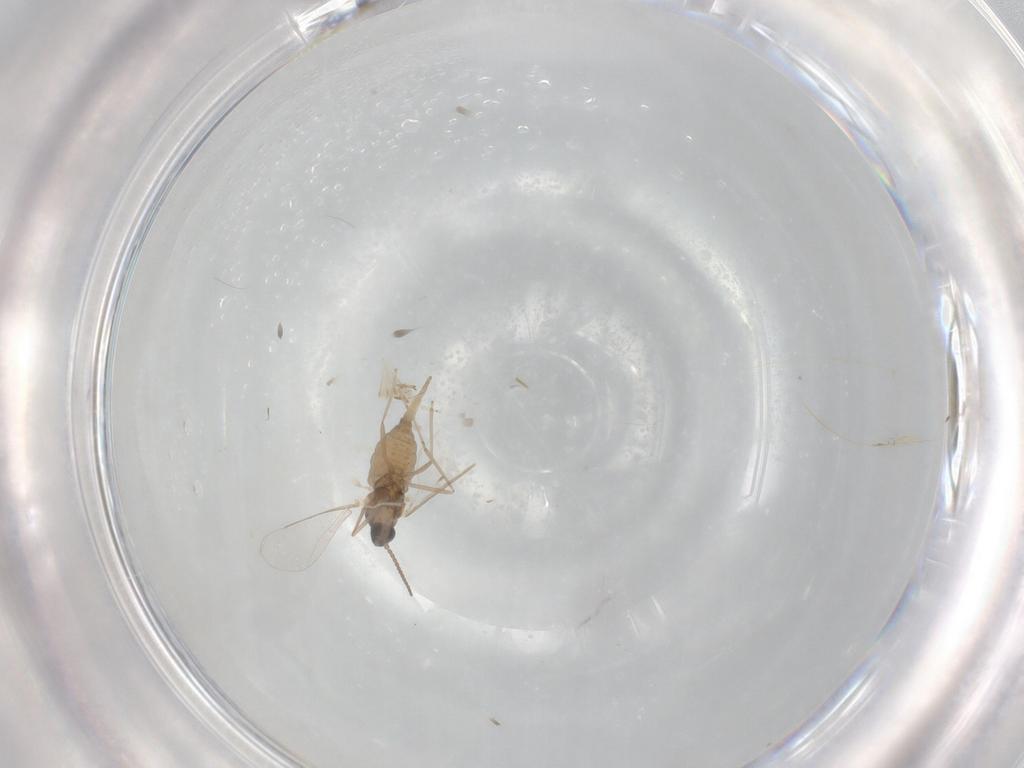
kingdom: Animalia
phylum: Arthropoda
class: Insecta
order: Diptera
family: Cecidomyiidae
